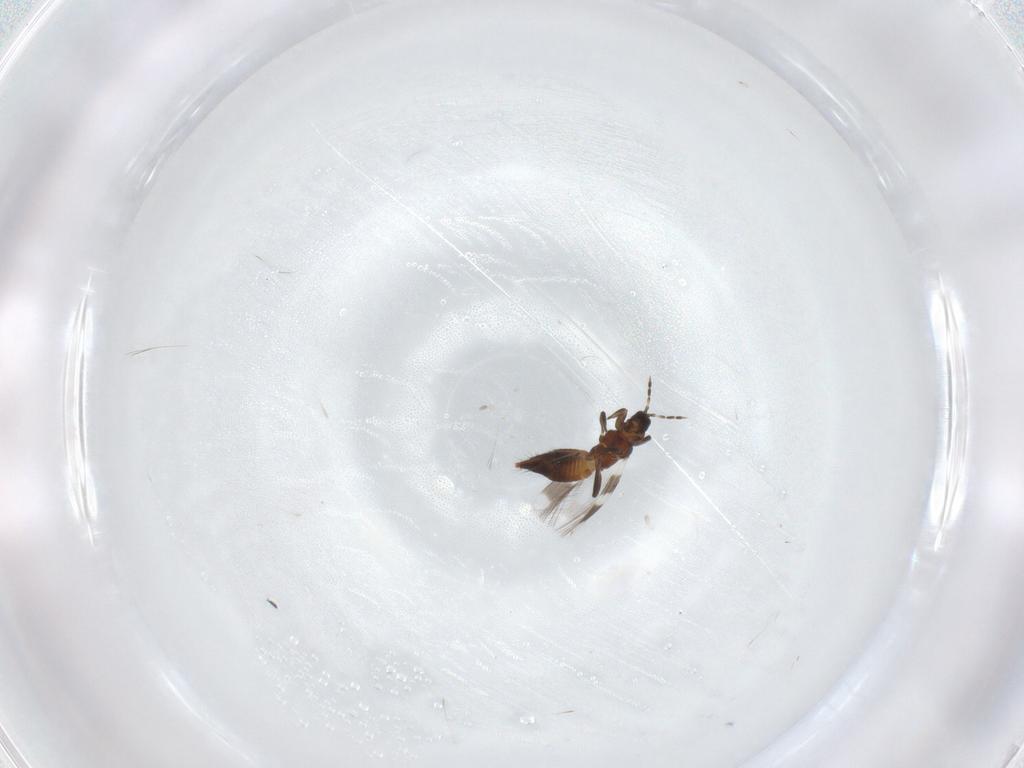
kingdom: Animalia
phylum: Arthropoda
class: Insecta
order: Thysanoptera
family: Aeolothripidae
